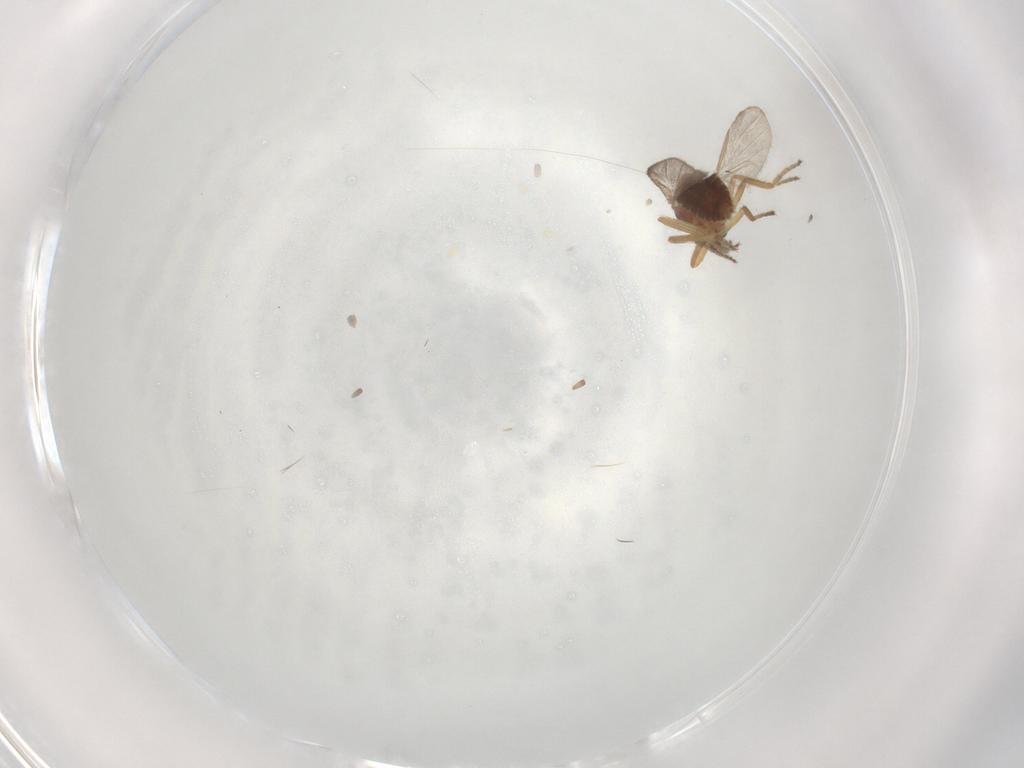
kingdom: Animalia
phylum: Arthropoda
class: Insecta
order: Diptera
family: Ceratopogonidae
